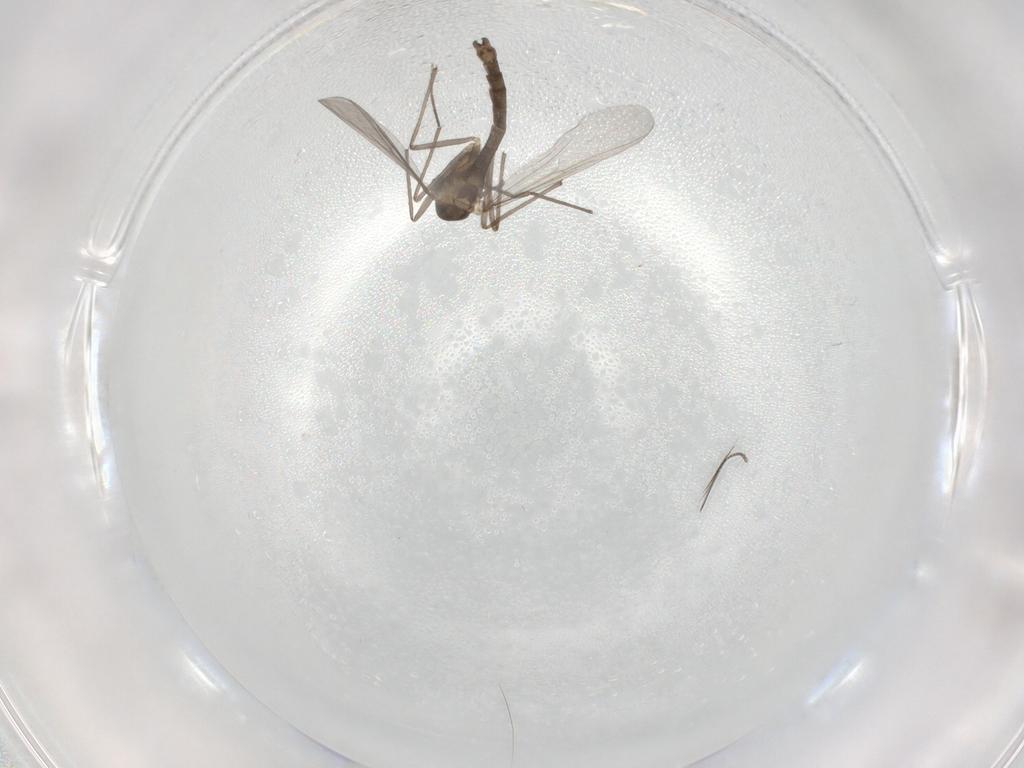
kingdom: Animalia
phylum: Arthropoda
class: Insecta
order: Diptera
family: Chironomidae
